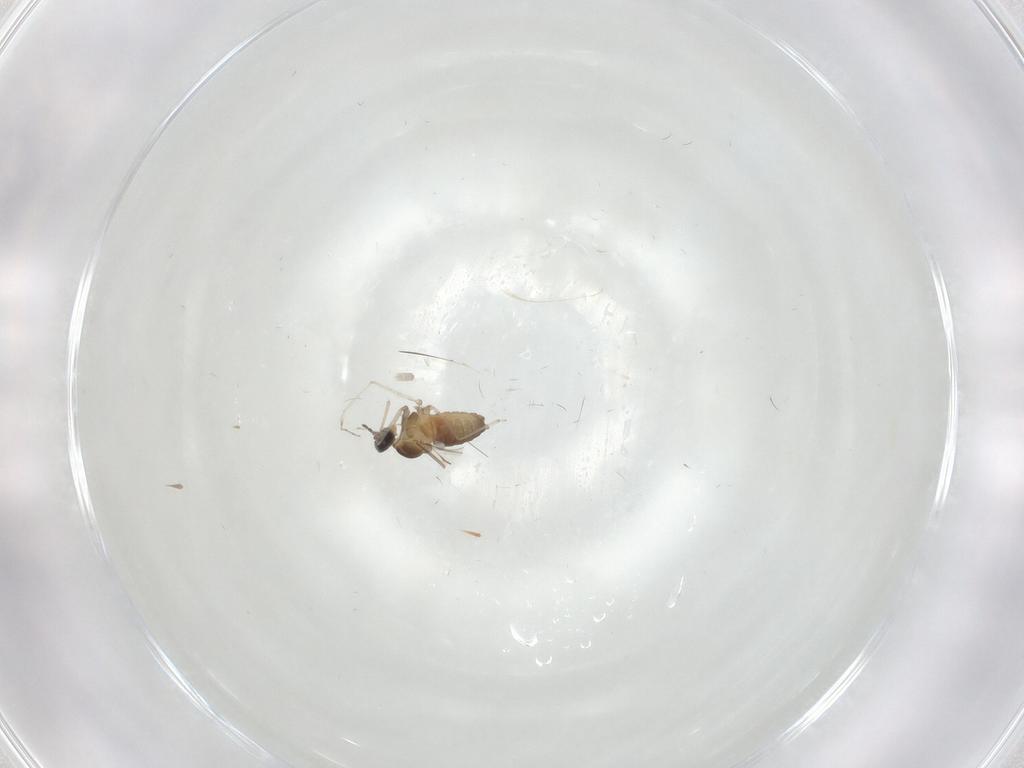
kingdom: Animalia
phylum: Arthropoda
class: Insecta
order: Diptera
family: Cecidomyiidae
